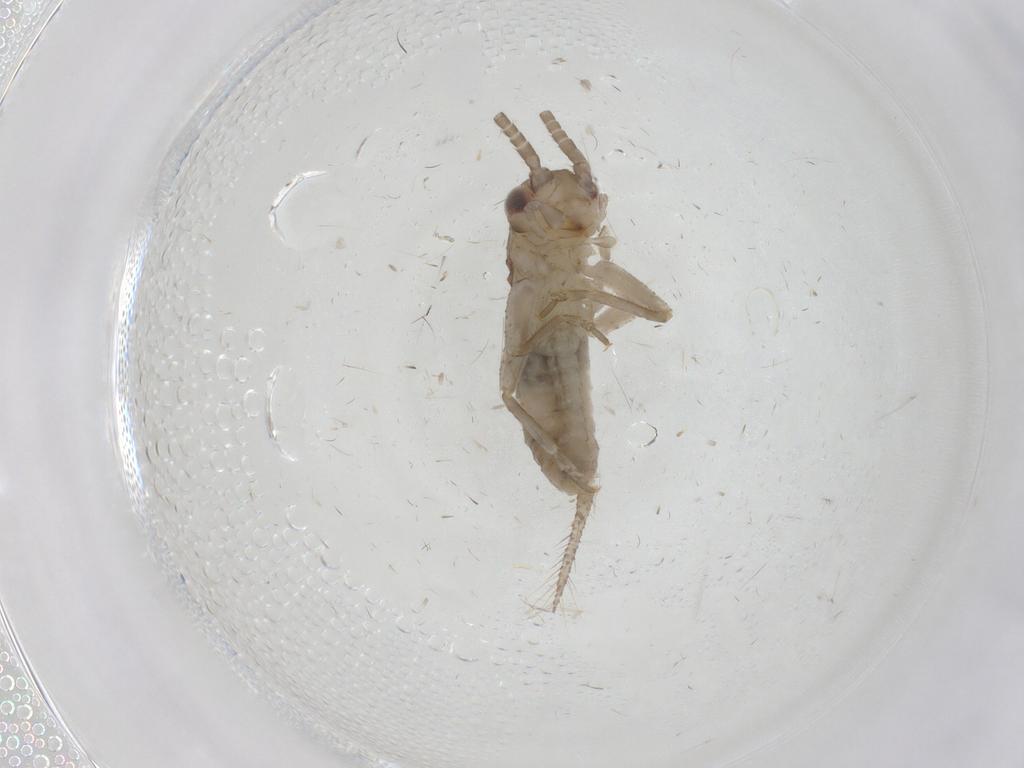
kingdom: Animalia
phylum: Arthropoda
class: Insecta
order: Orthoptera
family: Gryllidae
